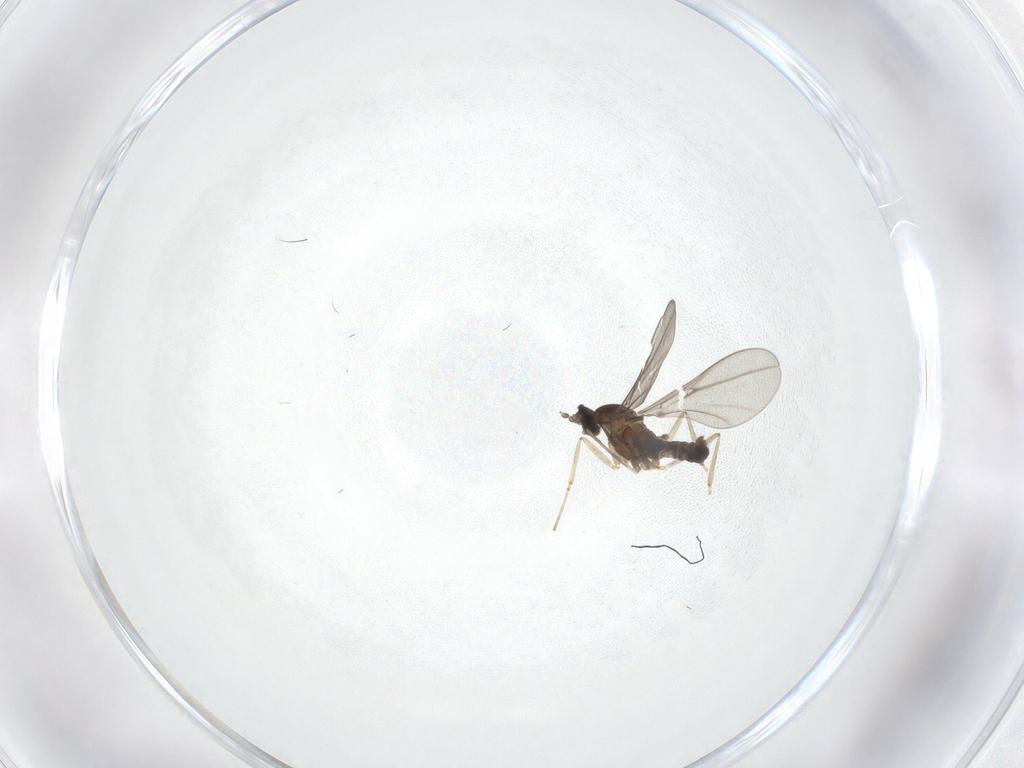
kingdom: Animalia
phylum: Arthropoda
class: Insecta
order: Diptera
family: Cecidomyiidae
